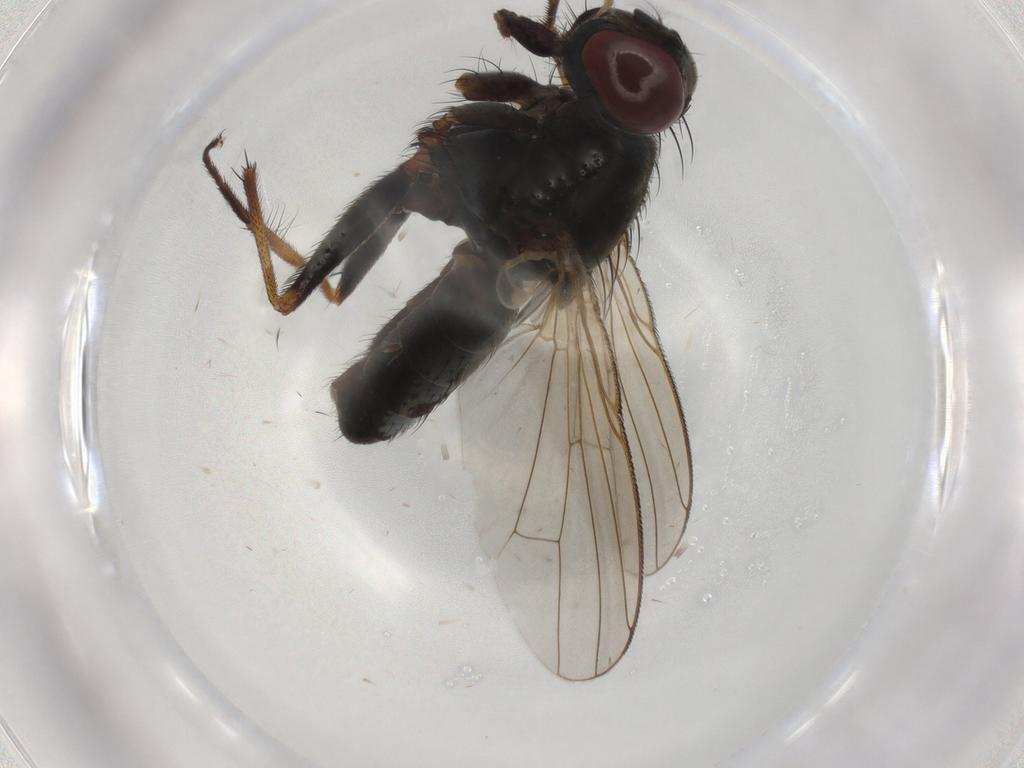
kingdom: Animalia
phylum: Arthropoda
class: Insecta
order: Diptera
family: Muscidae
